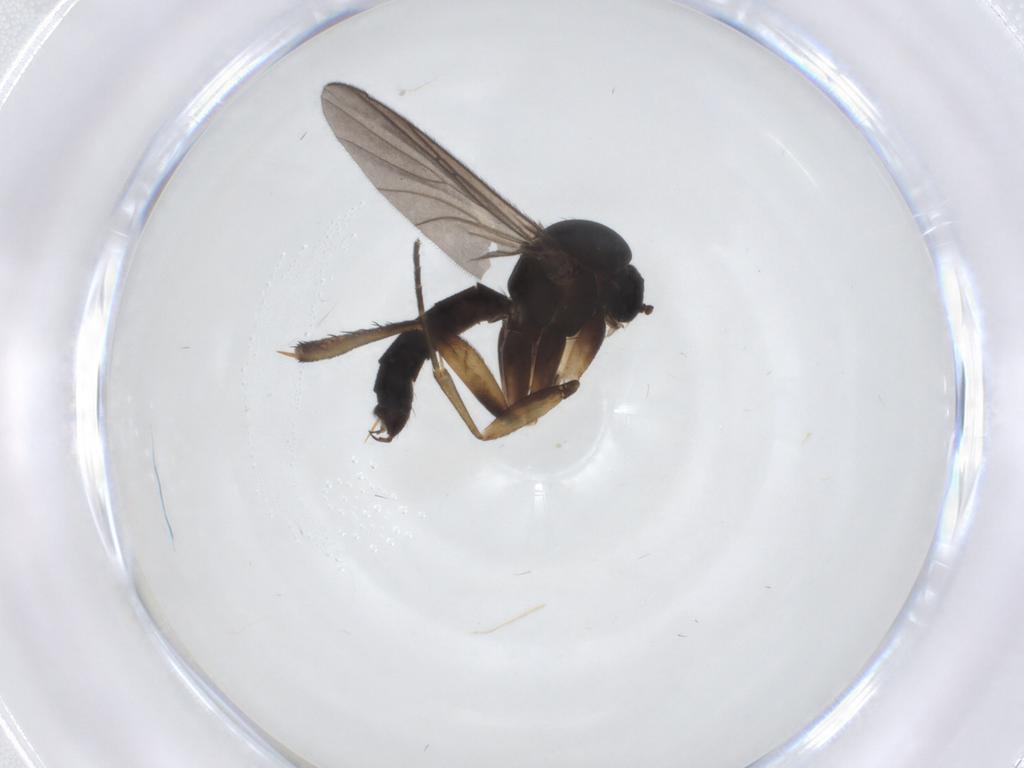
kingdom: Animalia
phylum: Arthropoda
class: Insecta
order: Diptera
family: Mycetophilidae
